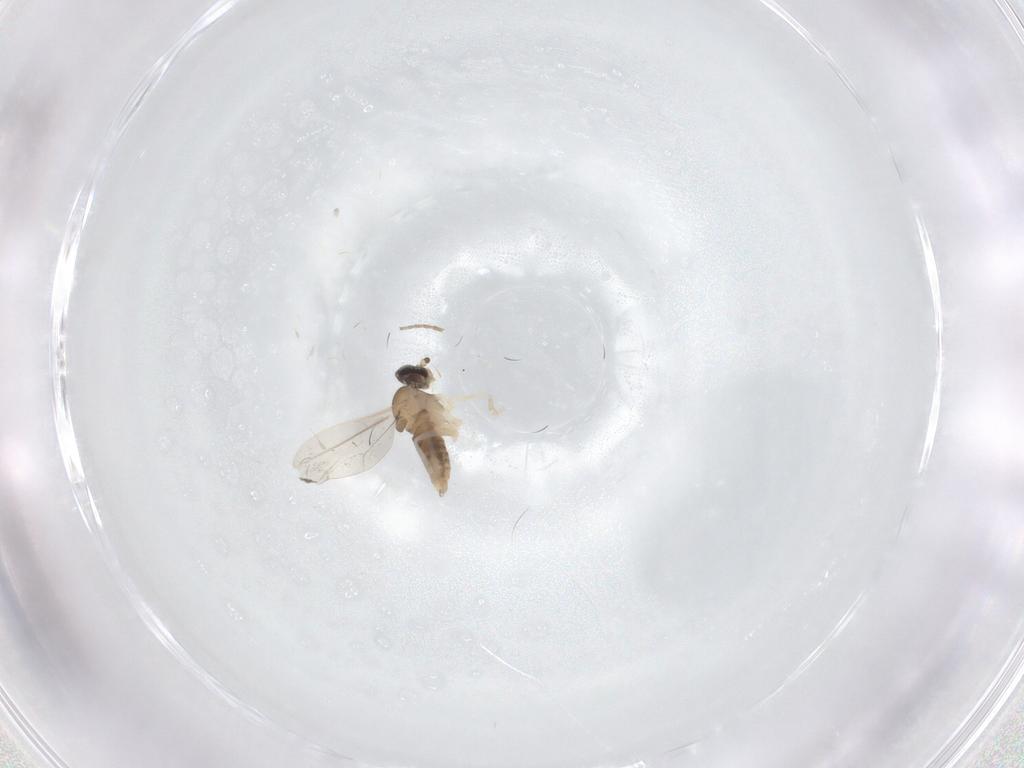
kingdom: Animalia
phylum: Arthropoda
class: Insecta
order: Diptera
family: Cecidomyiidae
